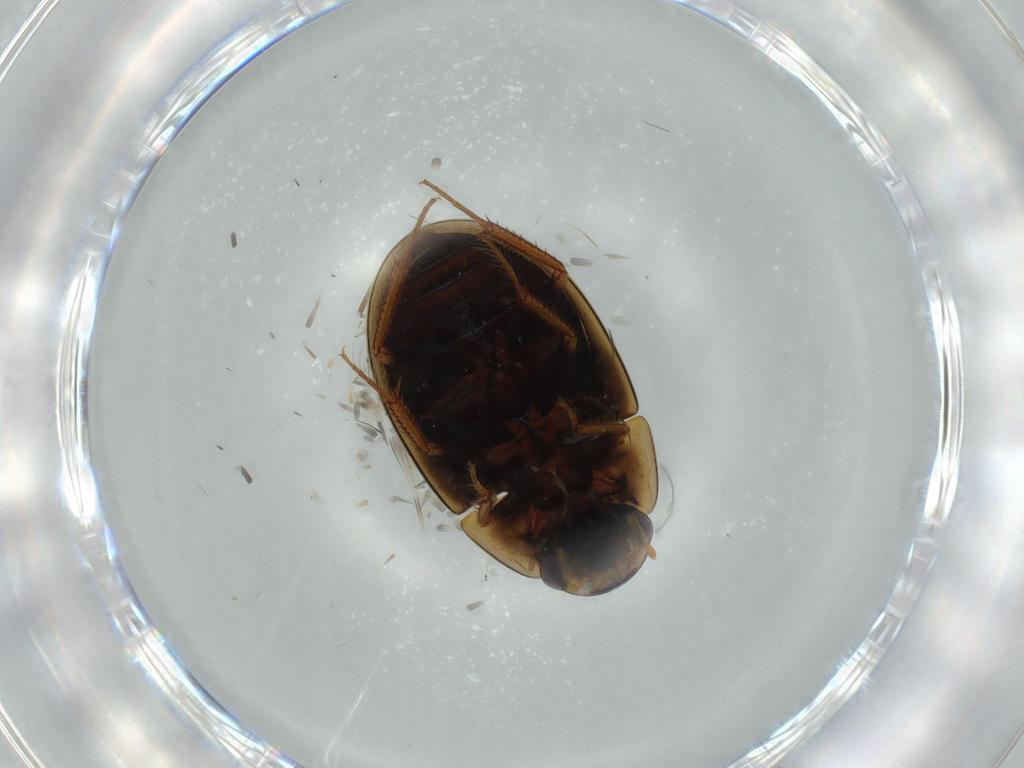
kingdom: Animalia
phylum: Arthropoda
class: Insecta
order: Coleoptera
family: Staphylinidae
